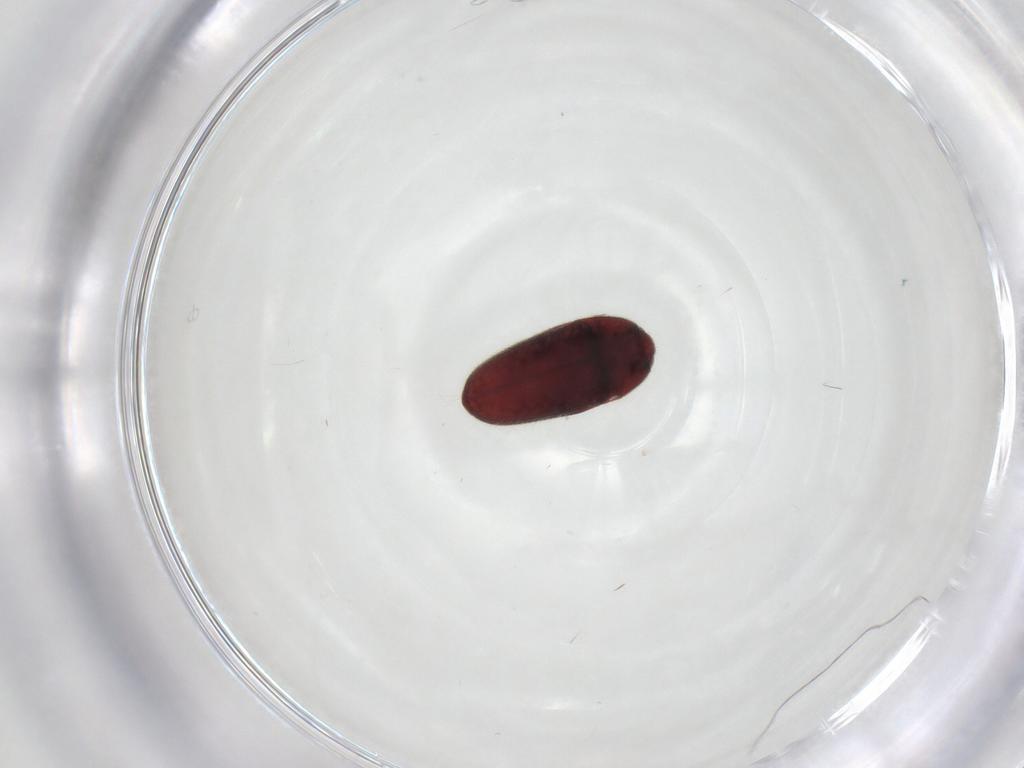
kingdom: Animalia
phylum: Arthropoda
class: Insecta
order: Coleoptera
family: Throscidae
